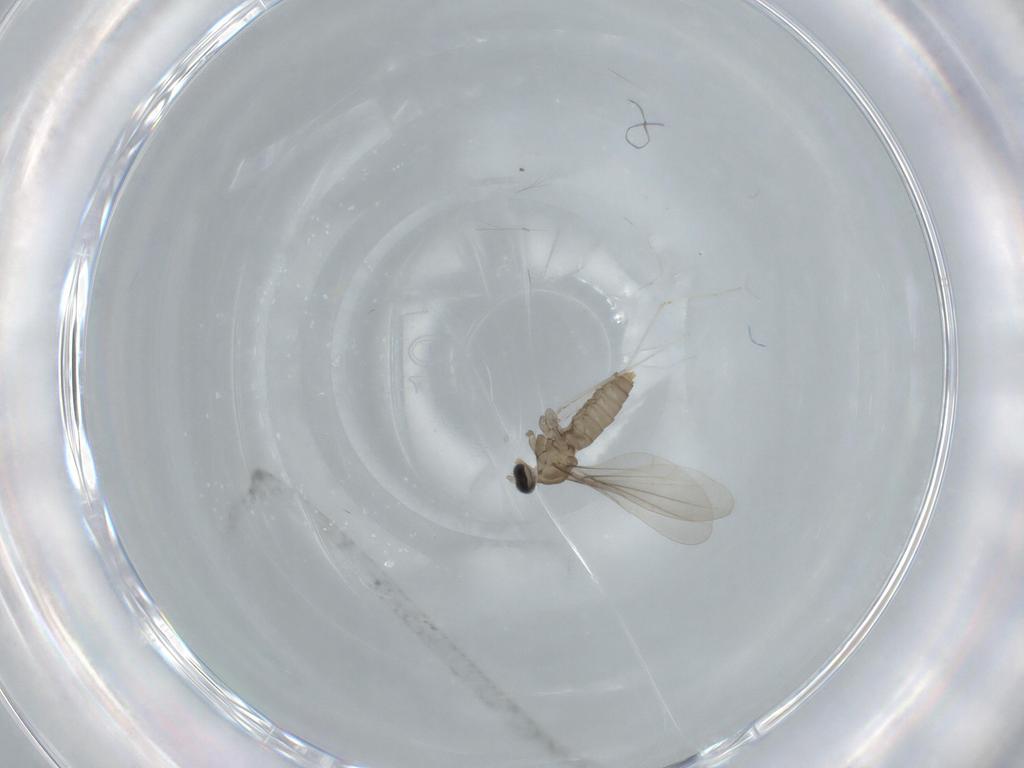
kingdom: Animalia
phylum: Arthropoda
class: Insecta
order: Diptera
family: Cecidomyiidae
